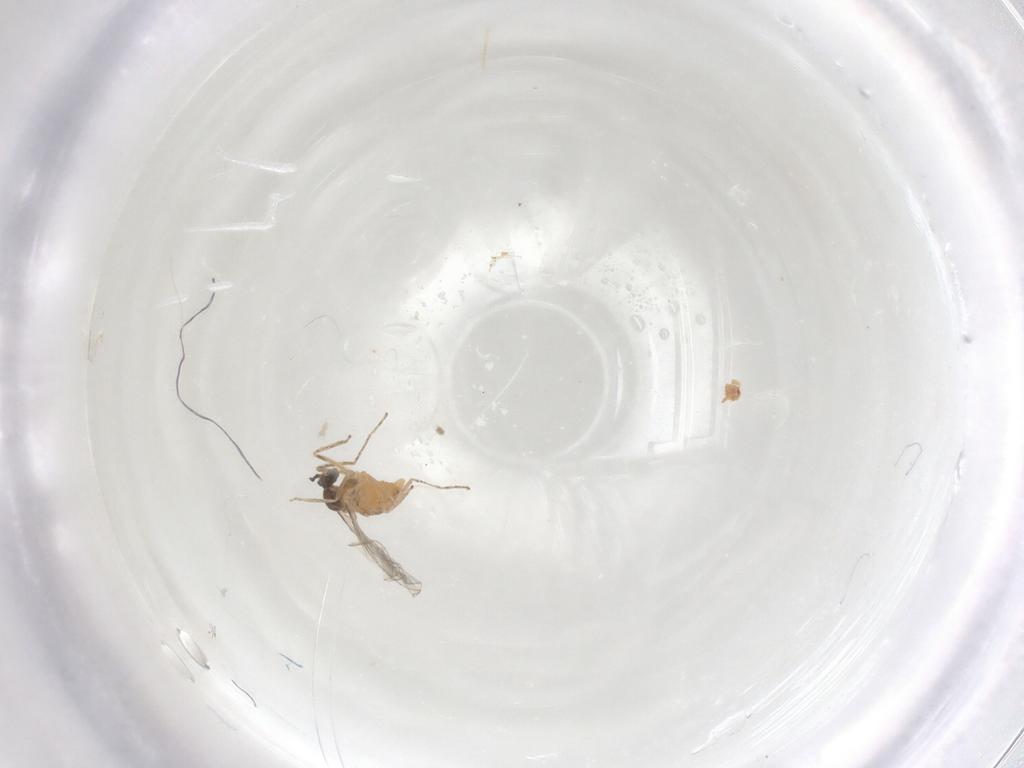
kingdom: Animalia
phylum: Arthropoda
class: Insecta
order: Diptera
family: Cecidomyiidae
